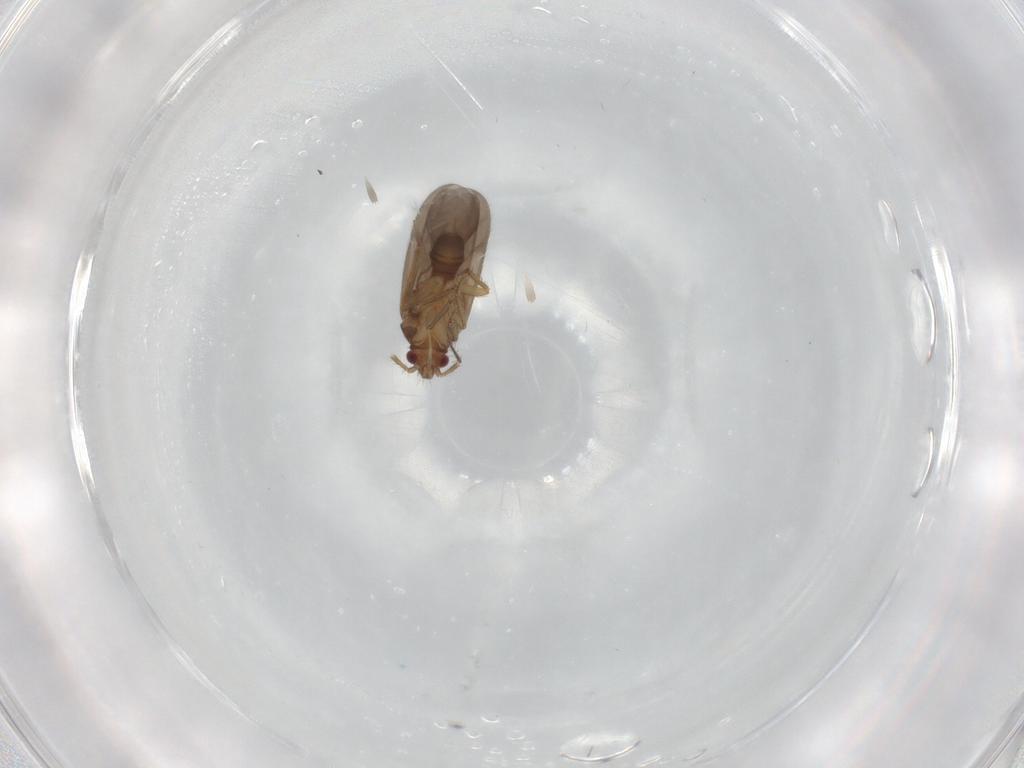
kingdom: Animalia
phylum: Arthropoda
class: Insecta
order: Hemiptera
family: Ceratocombidae
